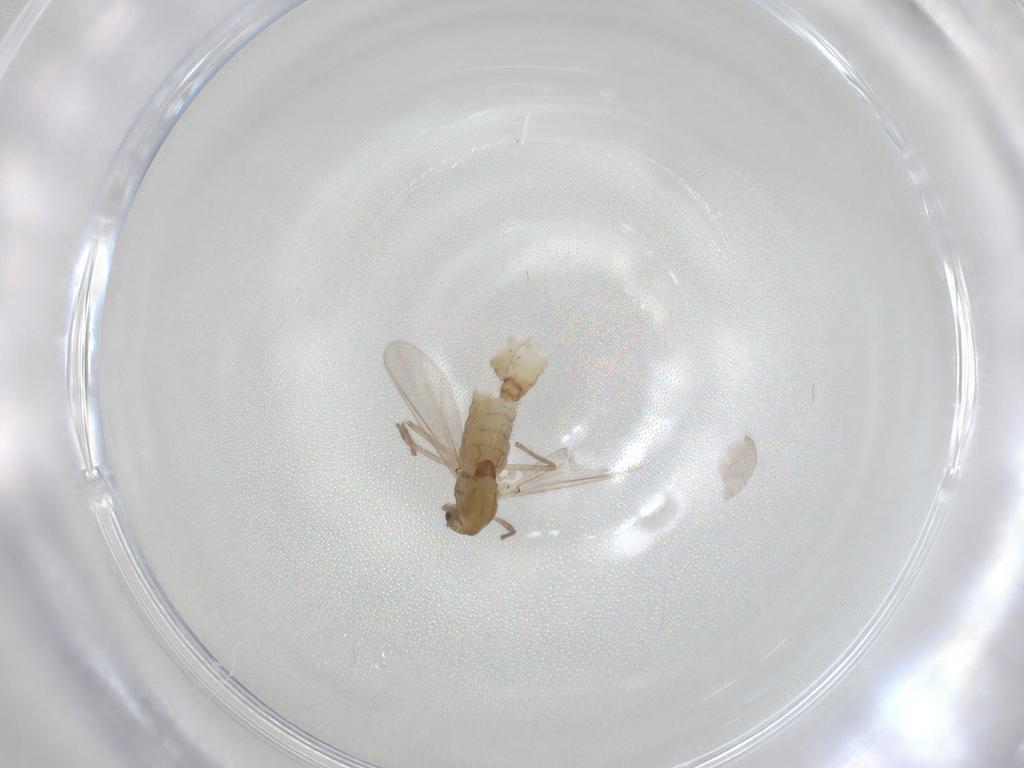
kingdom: Animalia
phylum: Arthropoda
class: Insecta
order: Diptera
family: Chironomidae
